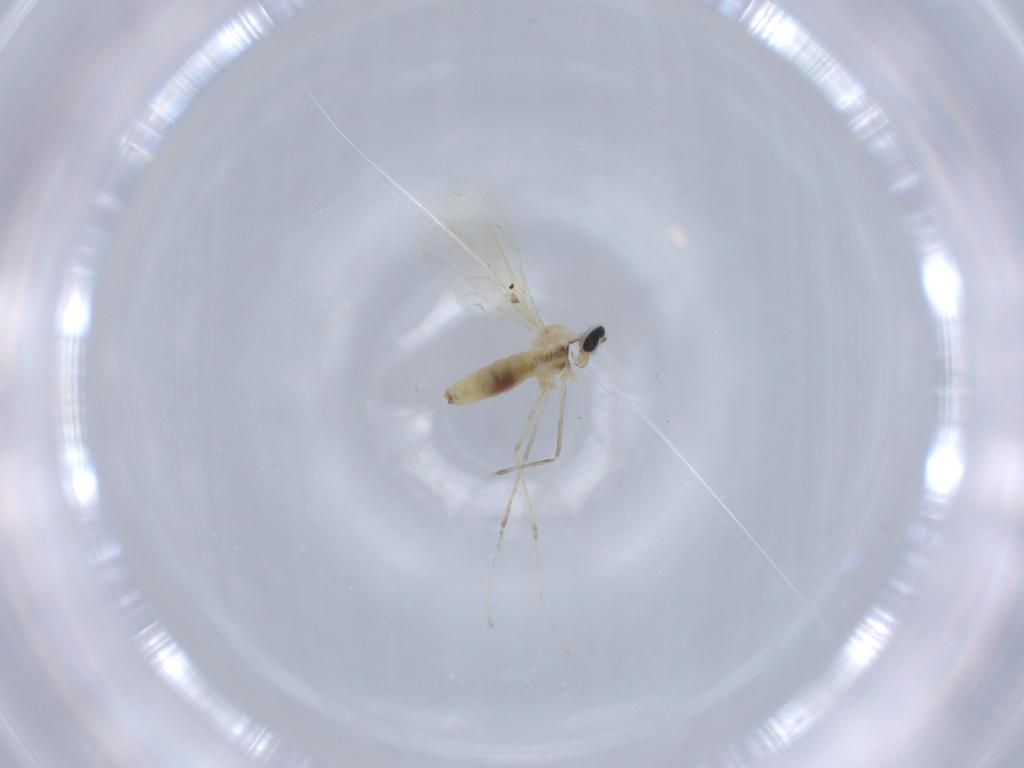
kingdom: Animalia
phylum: Arthropoda
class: Insecta
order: Diptera
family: Cecidomyiidae
